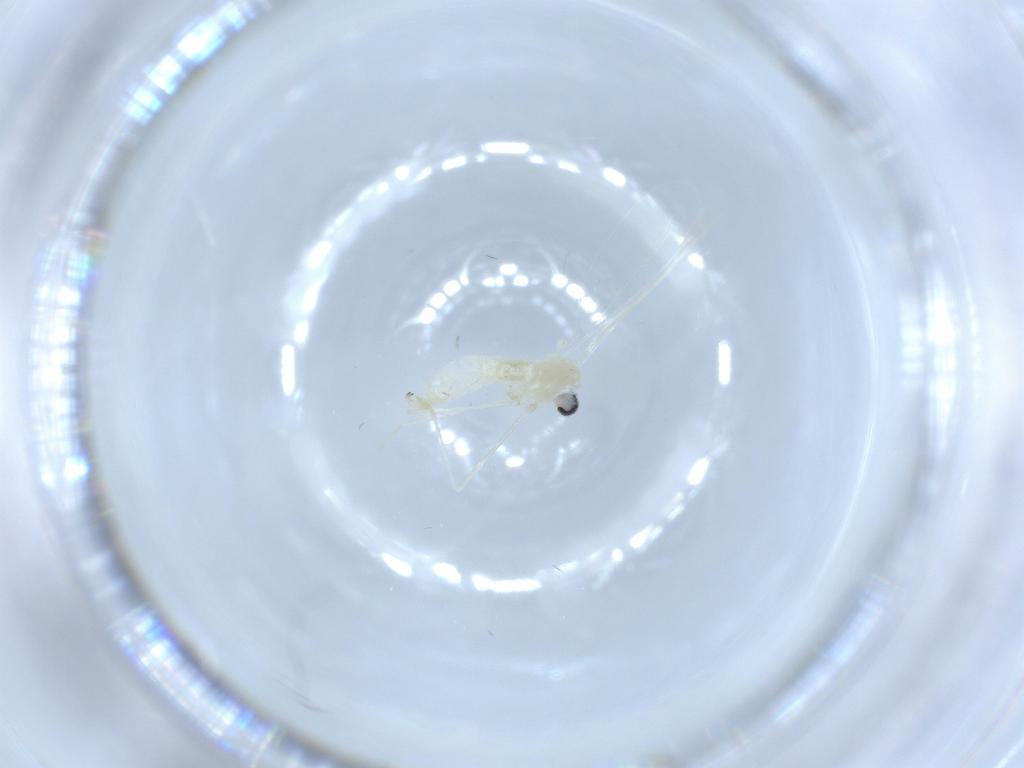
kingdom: Animalia
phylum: Arthropoda
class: Insecta
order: Diptera
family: Cecidomyiidae
